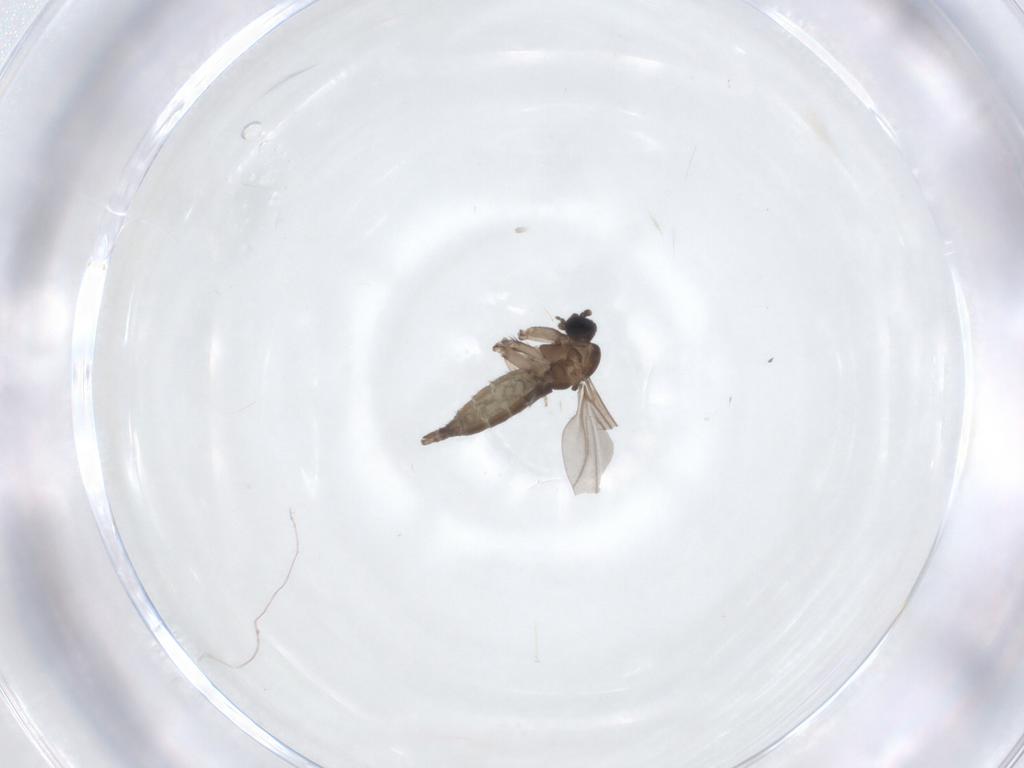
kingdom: Animalia
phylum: Arthropoda
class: Insecta
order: Diptera
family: Sciaridae
